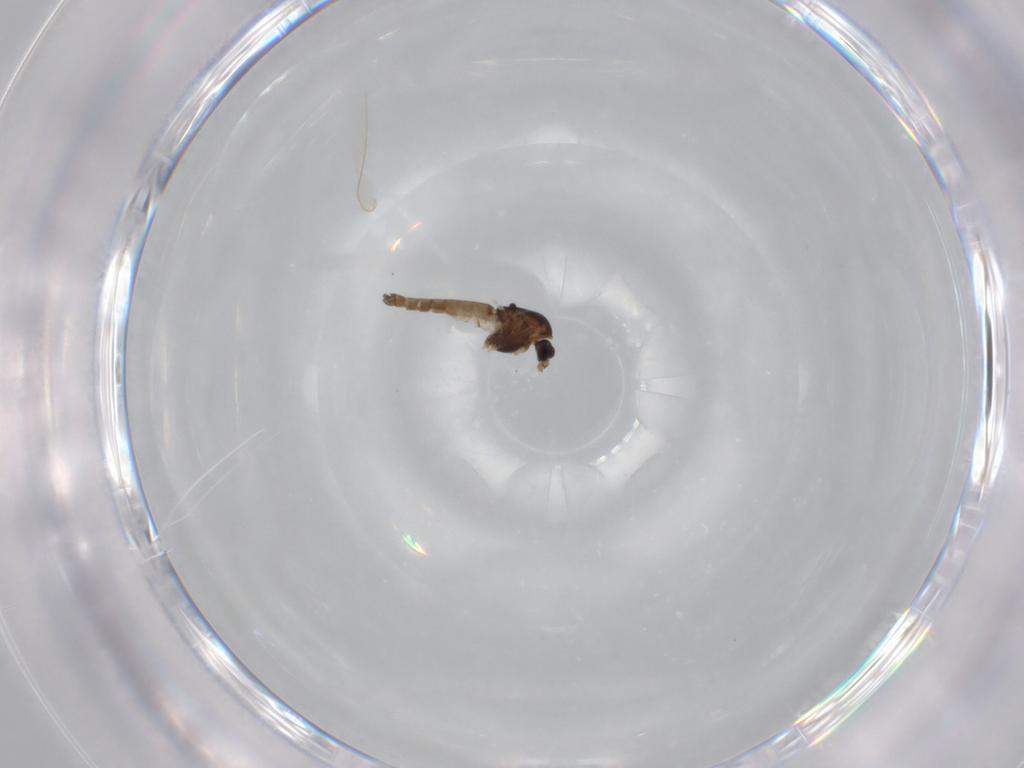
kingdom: Animalia
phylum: Arthropoda
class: Insecta
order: Diptera
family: Chironomidae
